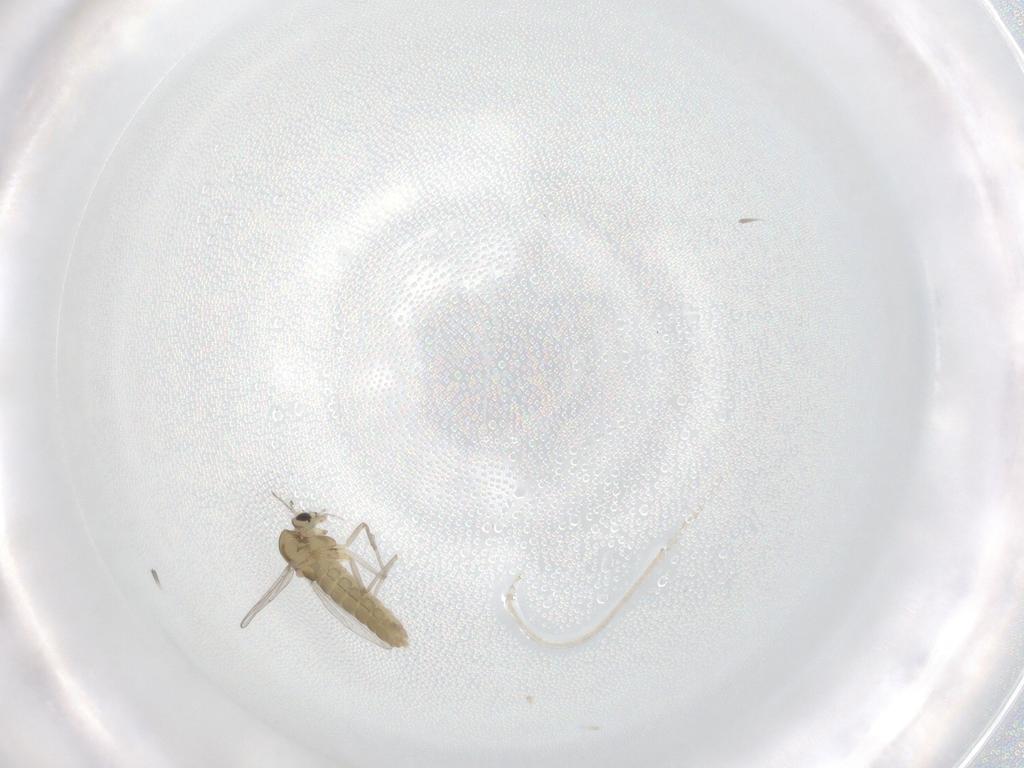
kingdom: Animalia
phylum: Arthropoda
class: Insecta
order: Diptera
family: Chironomidae
